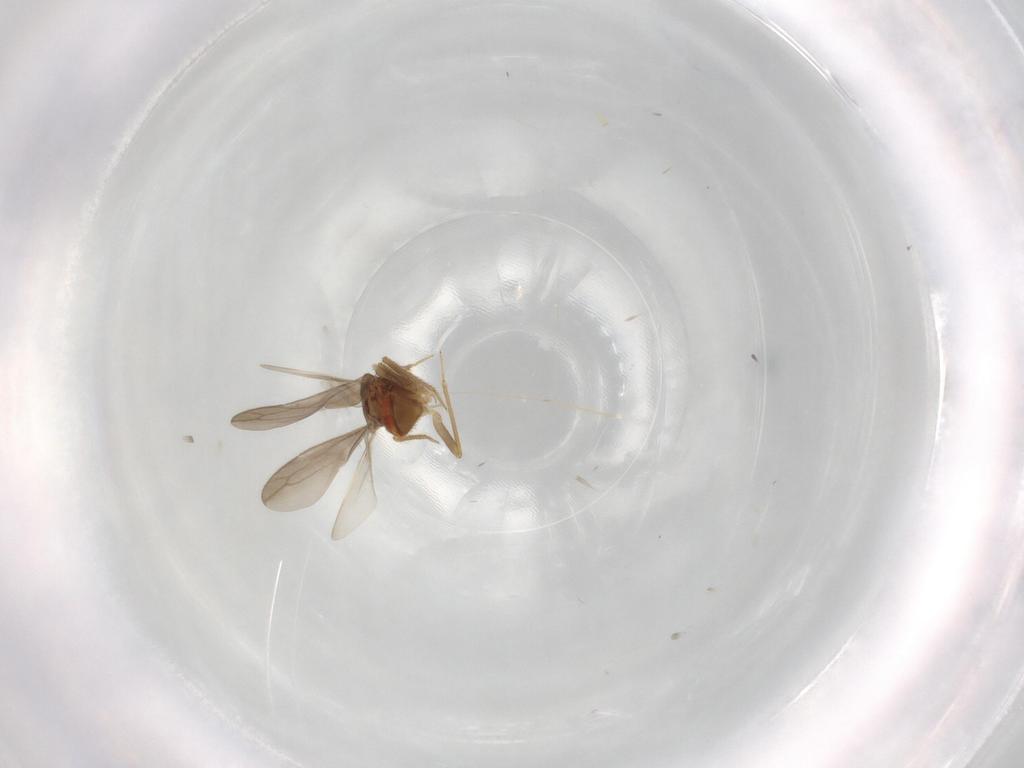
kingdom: Animalia
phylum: Arthropoda
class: Insecta
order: Hemiptera
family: Ceratocombidae
